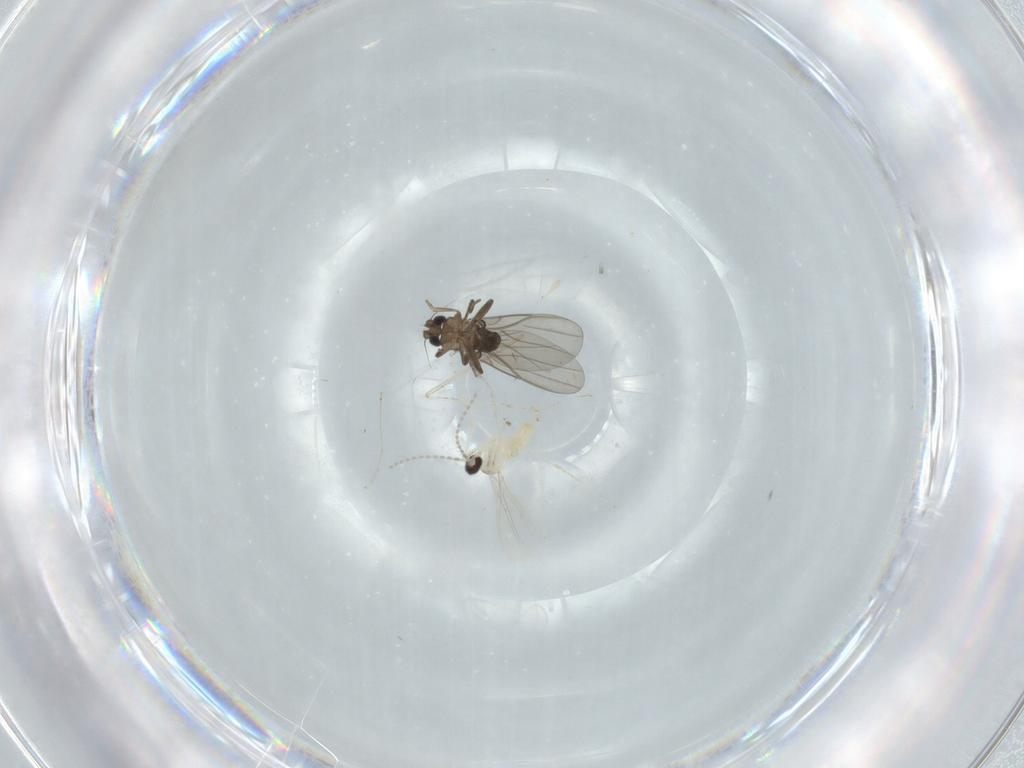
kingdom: Animalia
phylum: Arthropoda
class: Insecta
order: Diptera
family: Phoridae
